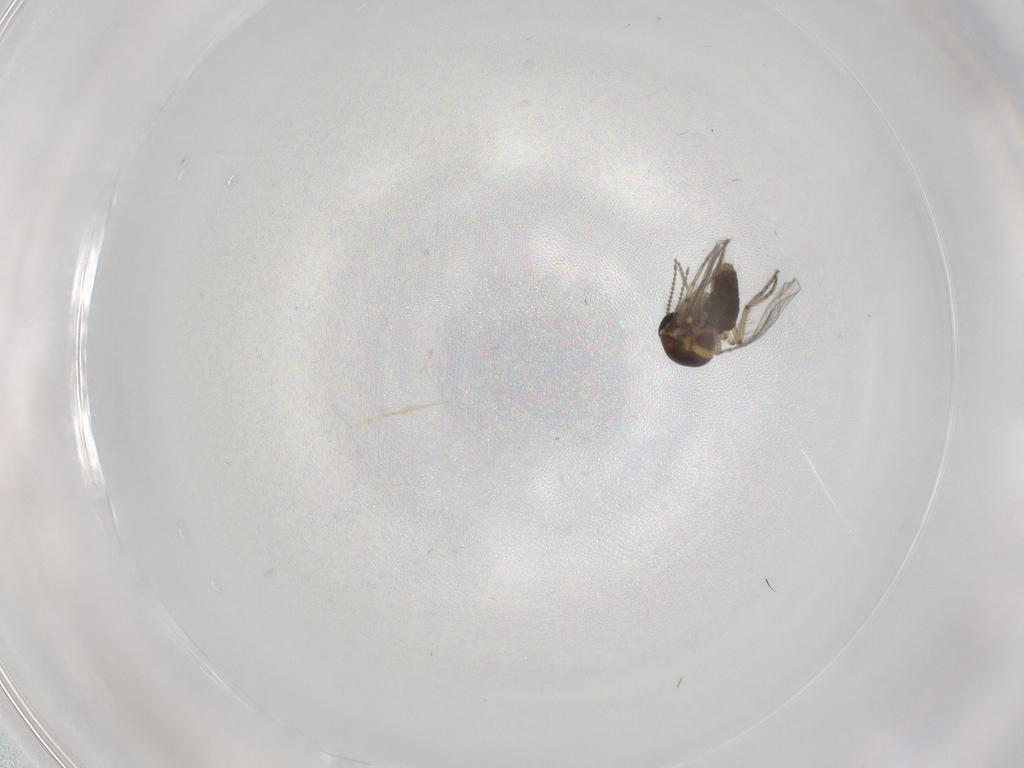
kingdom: Animalia
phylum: Arthropoda
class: Insecta
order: Diptera
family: Ceratopogonidae
